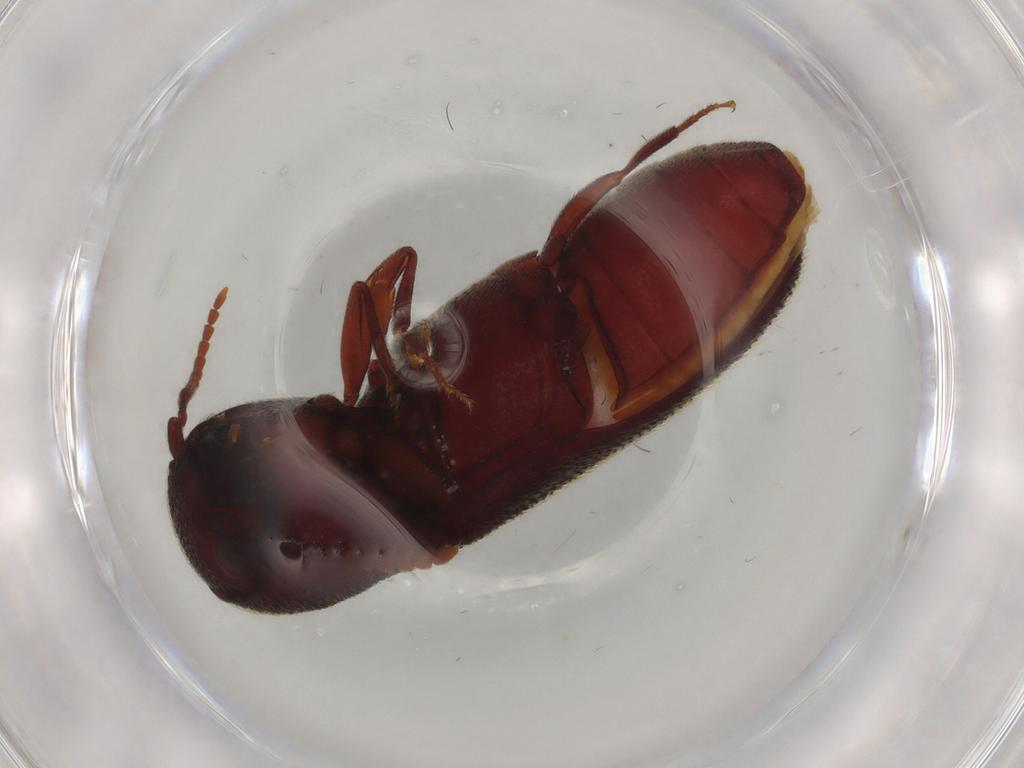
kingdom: Animalia
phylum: Arthropoda
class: Insecta
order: Coleoptera
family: Eucnemidae
